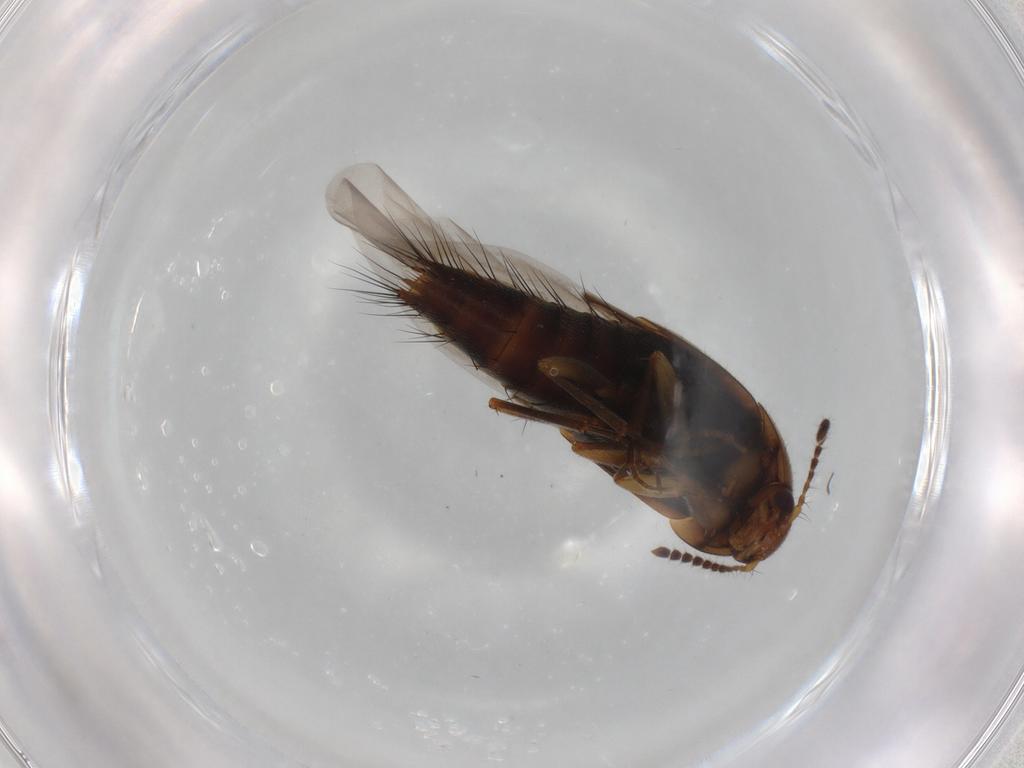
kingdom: Animalia
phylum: Arthropoda
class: Insecta
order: Coleoptera
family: Staphylinidae
